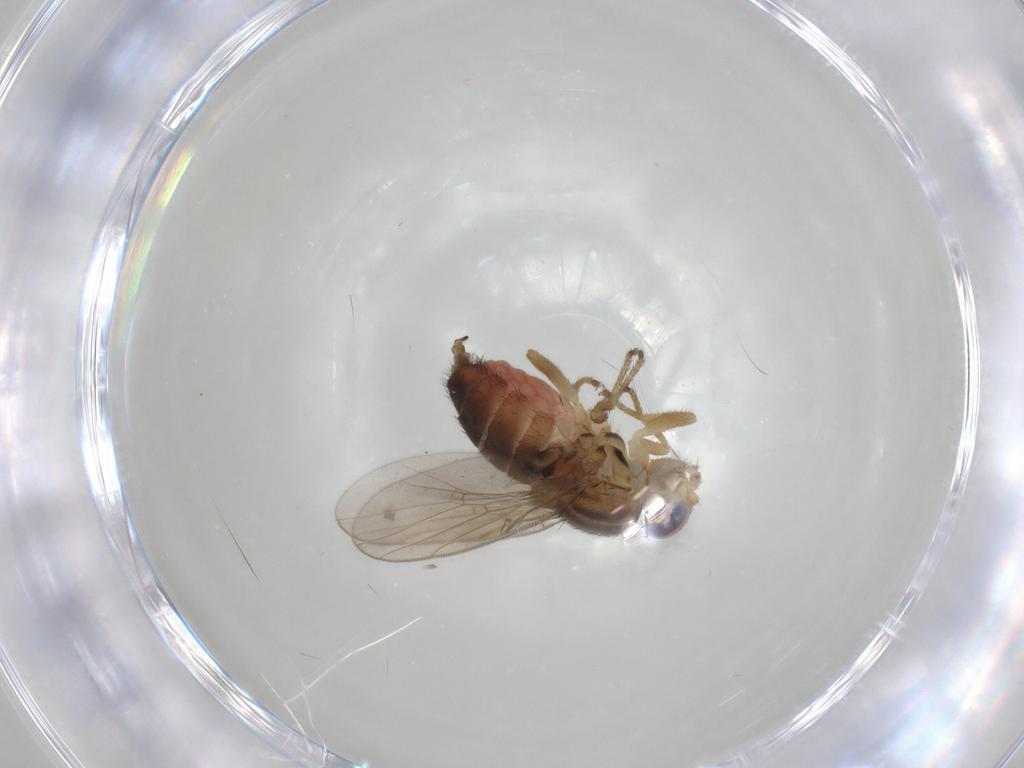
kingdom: Animalia
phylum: Arthropoda
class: Insecta
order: Diptera
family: Chloropidae
